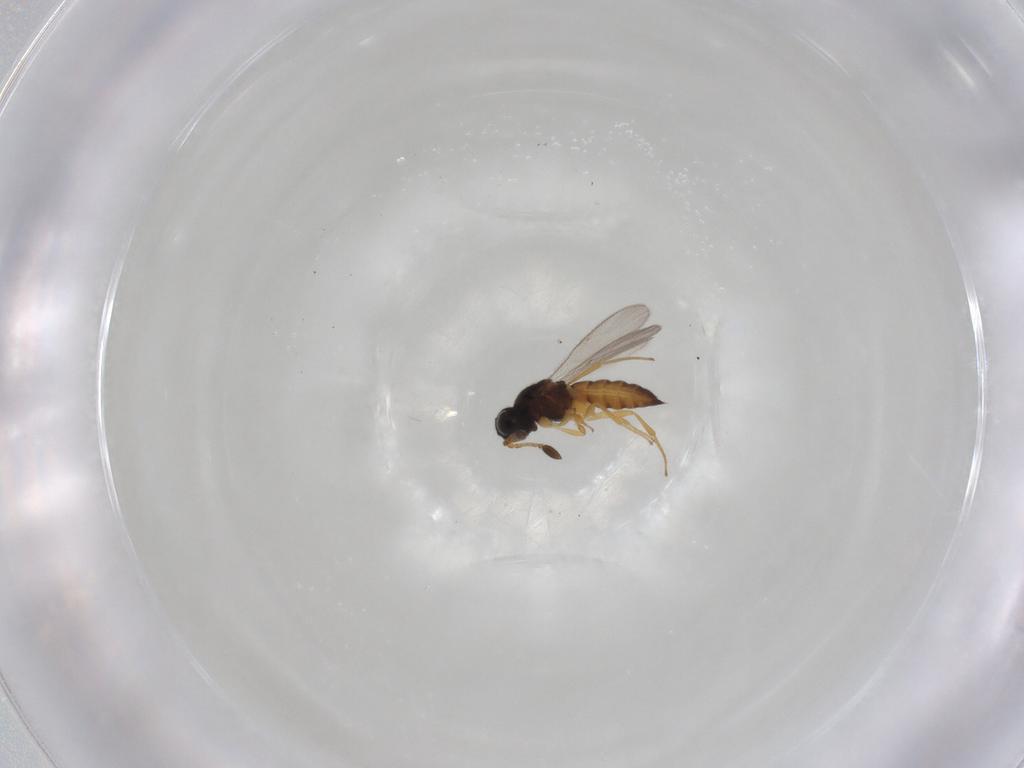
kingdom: Animalia
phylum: Arthropoda
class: Insecta
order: Hymenoptera
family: Scelionidae
